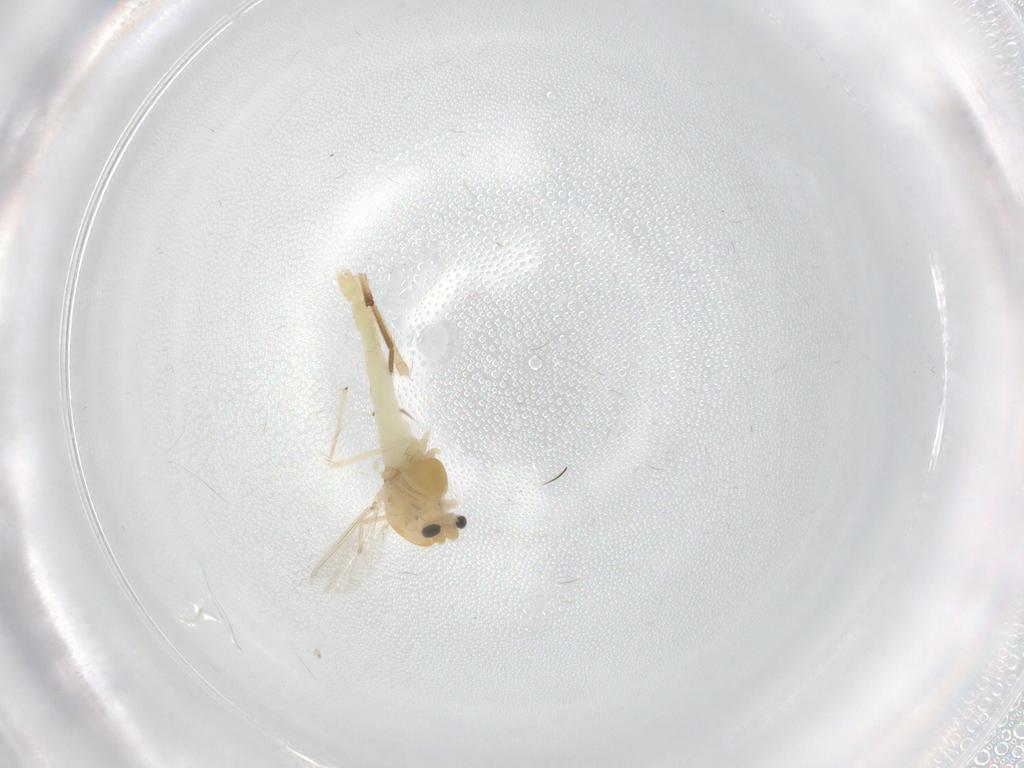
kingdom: Animalia
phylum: Arthropoda
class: Insecta
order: Diptera
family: Chironomidae
